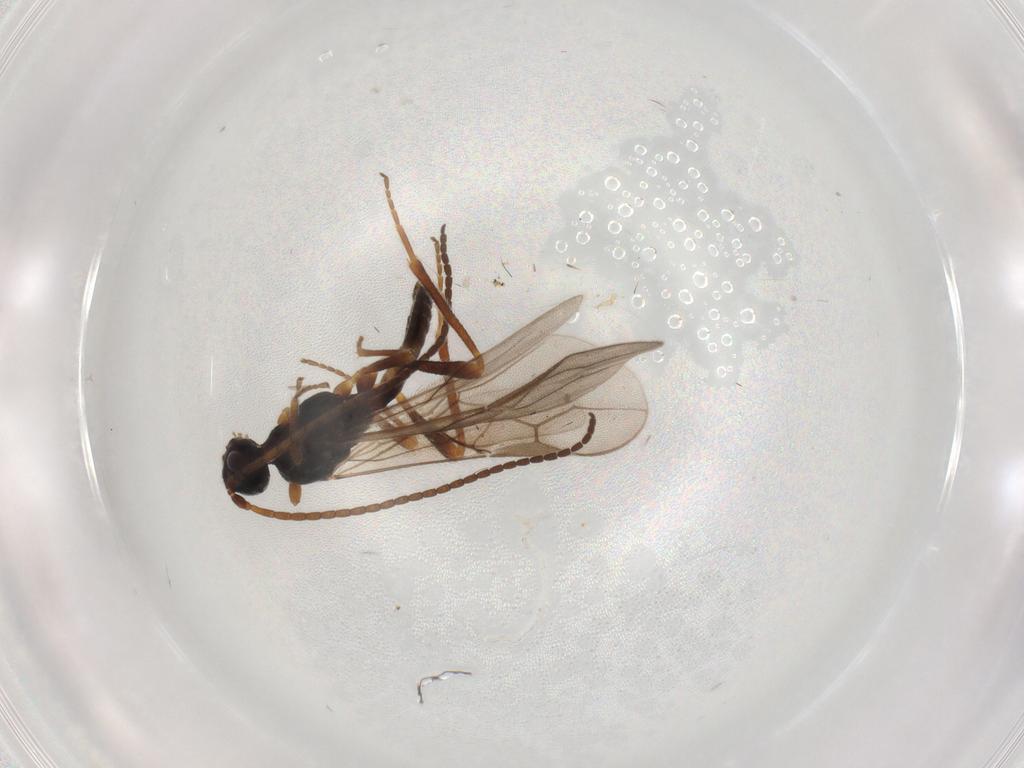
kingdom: Animalia
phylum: Arthropoda
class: Insecta
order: Hymenoptera
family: Braconidae
